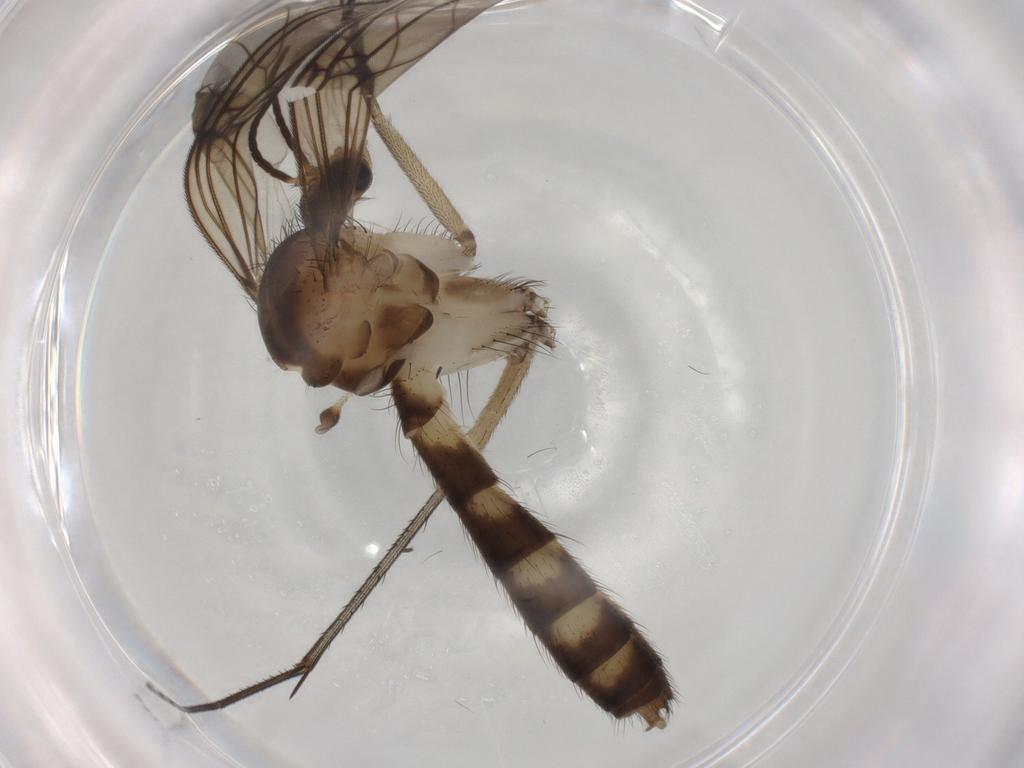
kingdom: Animalia
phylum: Arthropoda
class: Insecta
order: Diptera
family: Mycetophilidae
